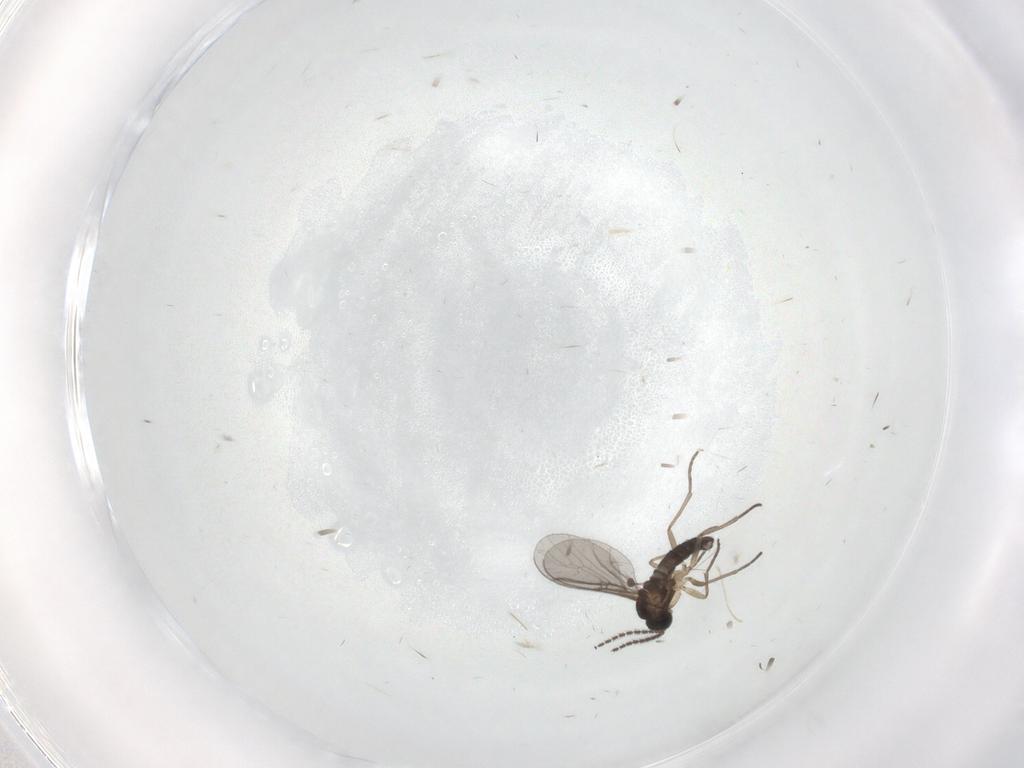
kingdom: Animalia
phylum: Arthropoda
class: Insecta
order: Diptera
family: Sciaridae
